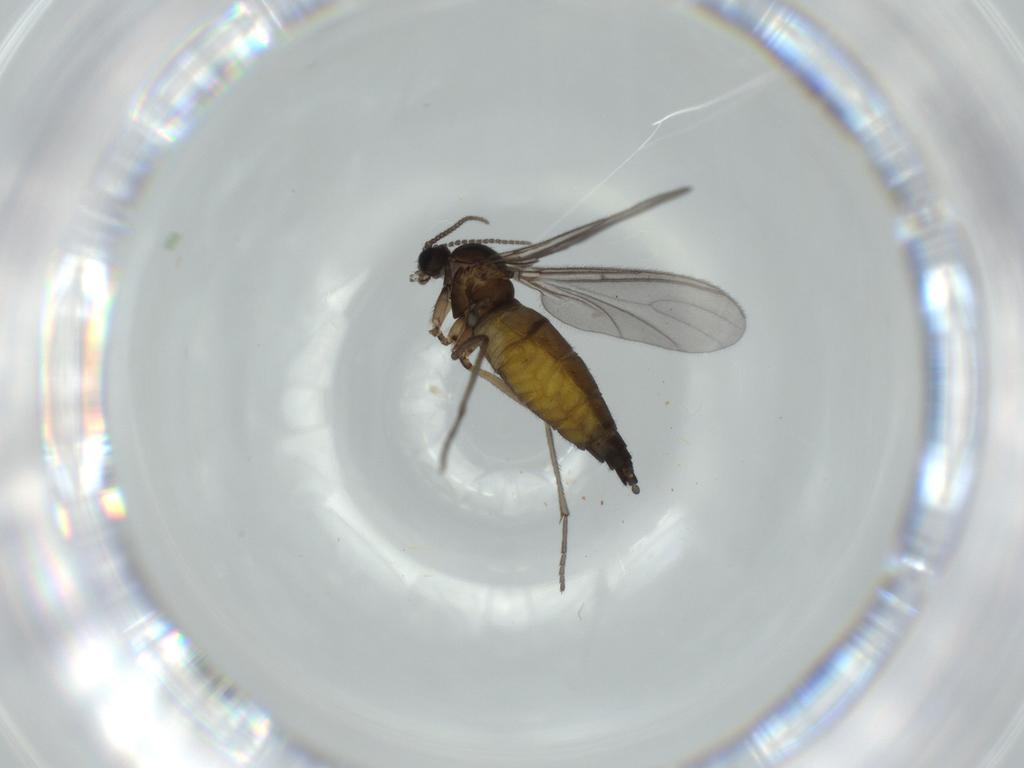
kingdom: Animalia
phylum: Arthropoda
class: Insecta
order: Diptera
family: Sciaridae
